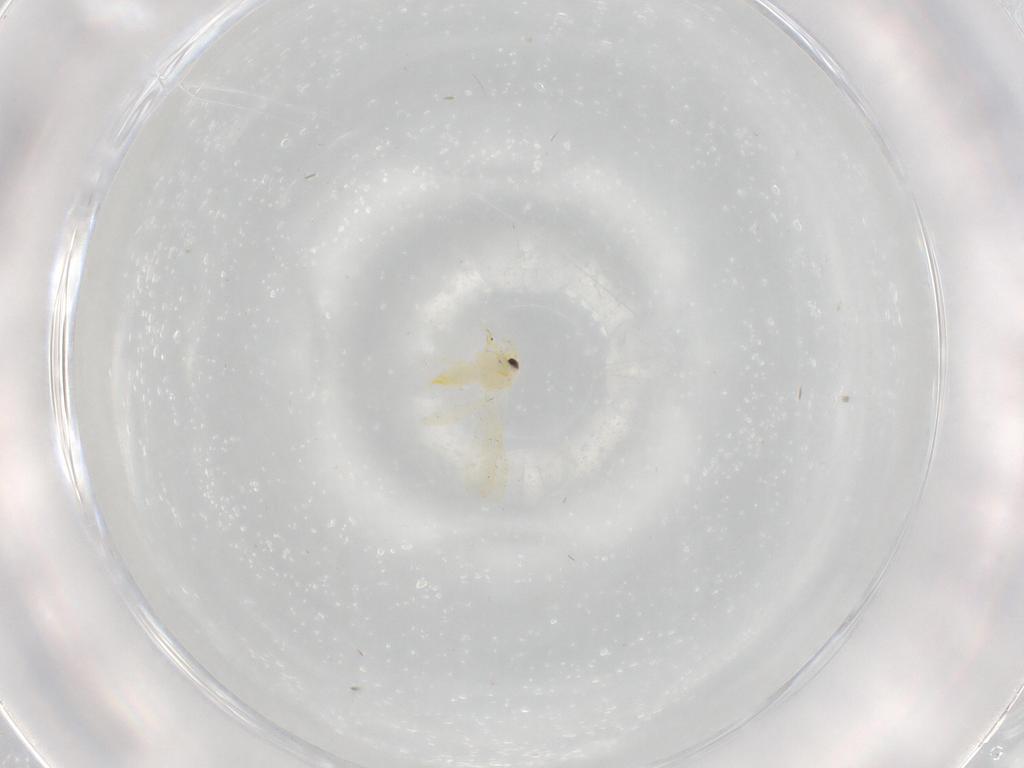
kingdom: Animalia
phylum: Arthropoda
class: Insecta
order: Hemiptera
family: Aleyrodidae
